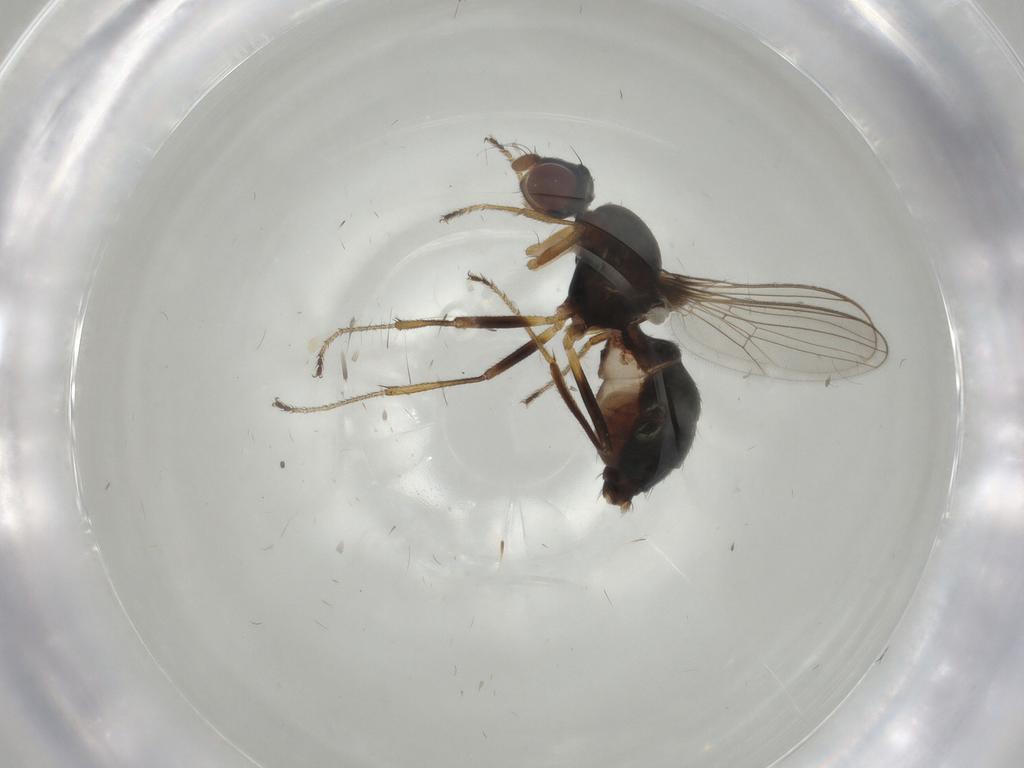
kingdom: Animalia
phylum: Arthropoda
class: Insecta
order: Diptera
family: Sepsidae
